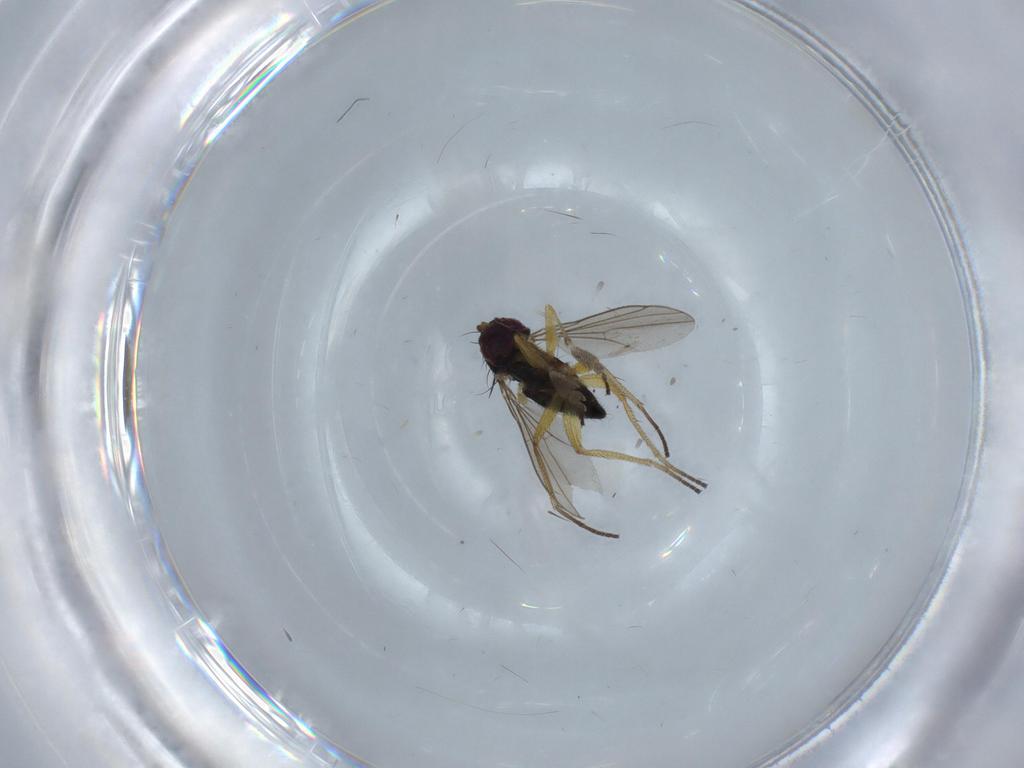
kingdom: Animalia
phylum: Arthropoda
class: Insecta
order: Diptera
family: Dolichopodidae
